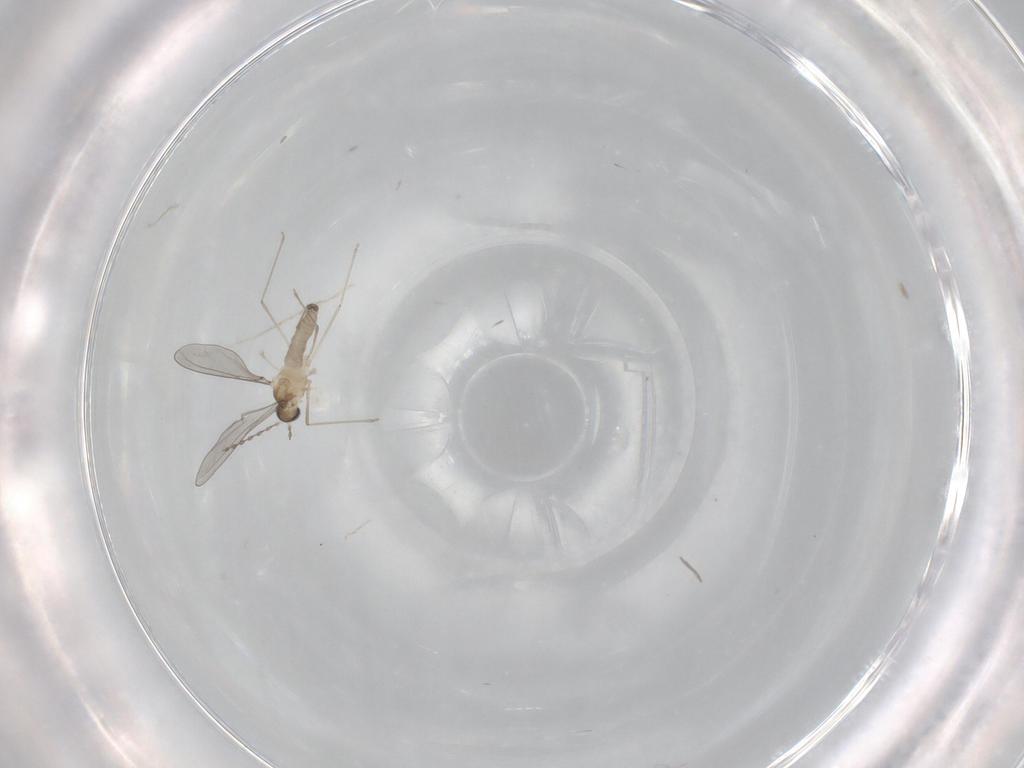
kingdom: Animalia
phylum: Arthropoda
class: Insecta
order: Diptera
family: Cecidomyiidae
